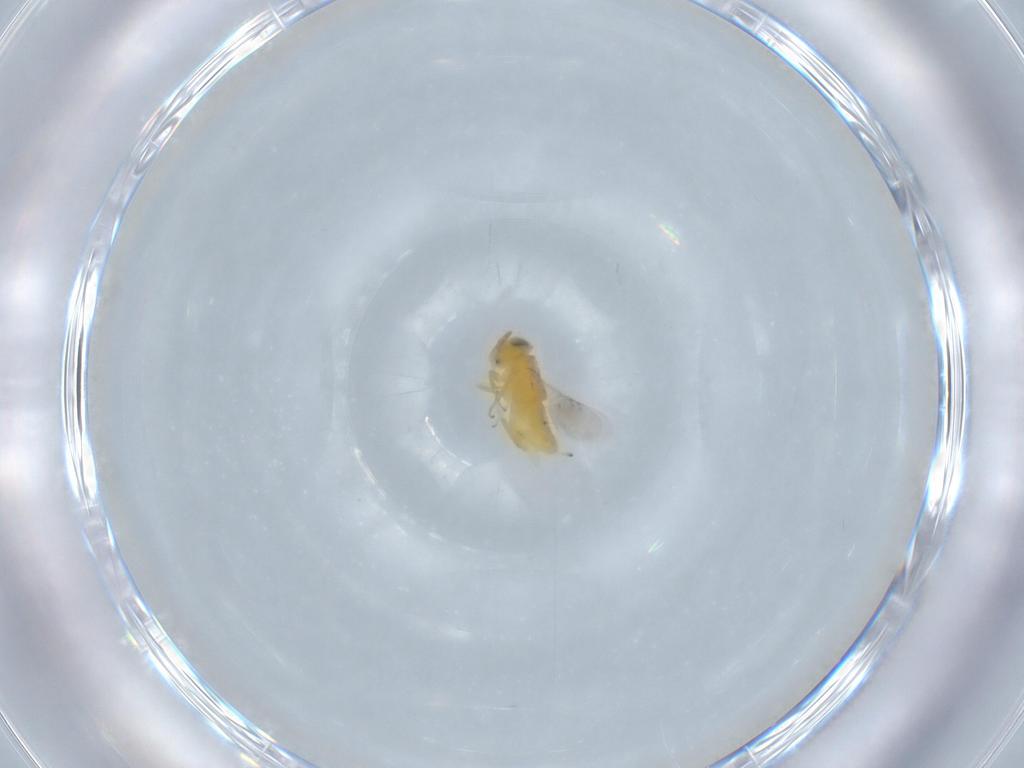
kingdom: Animalia
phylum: Arthropoda
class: Insecta
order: Hymenoptera
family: Encyrtidae
